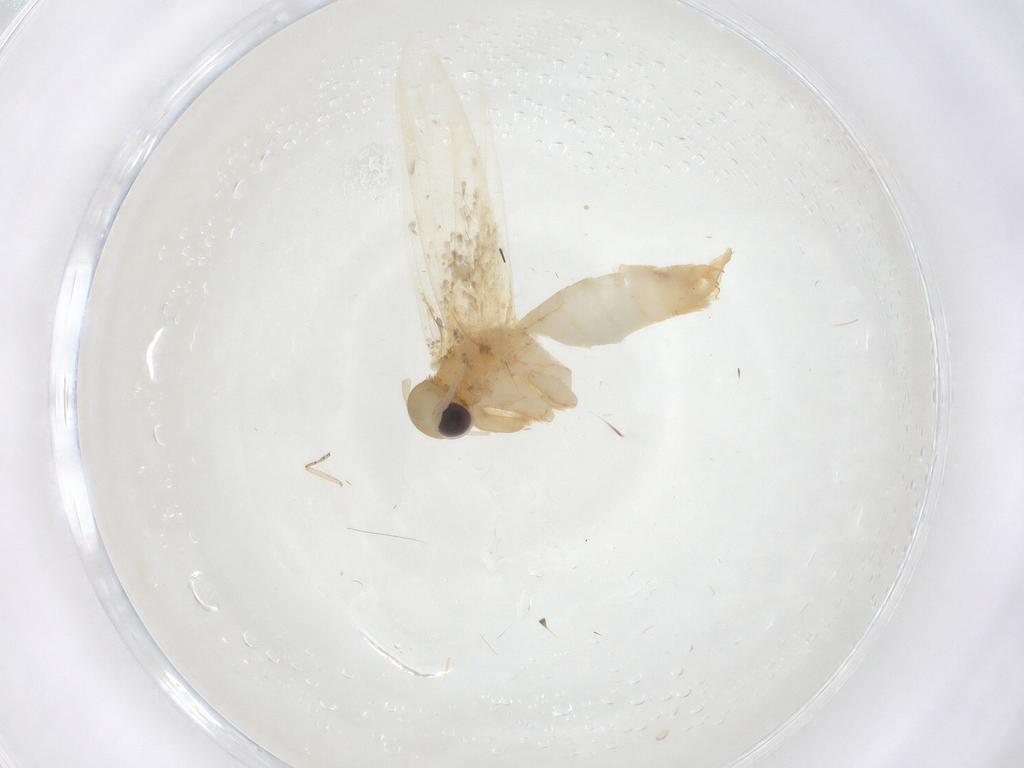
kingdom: Animalia
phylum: Arthropoda
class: Insecta
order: Lepidoptera
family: Erebidae
